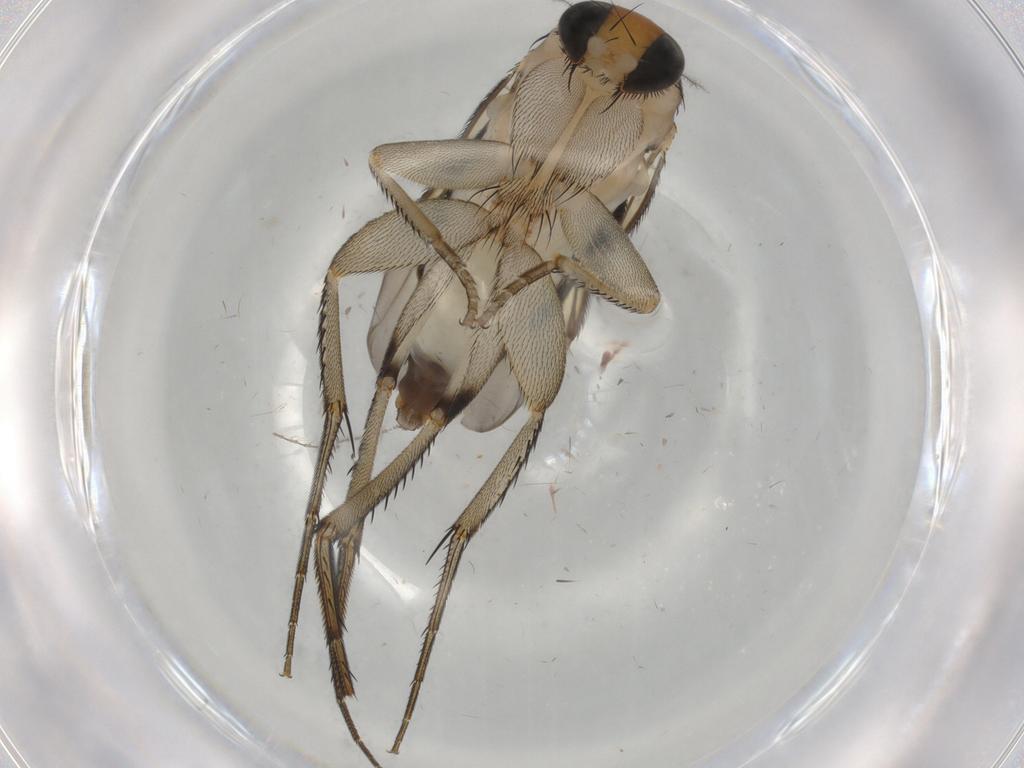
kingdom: Animalia
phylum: Arthropoda
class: Insecta
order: Diptera
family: Phoridae
